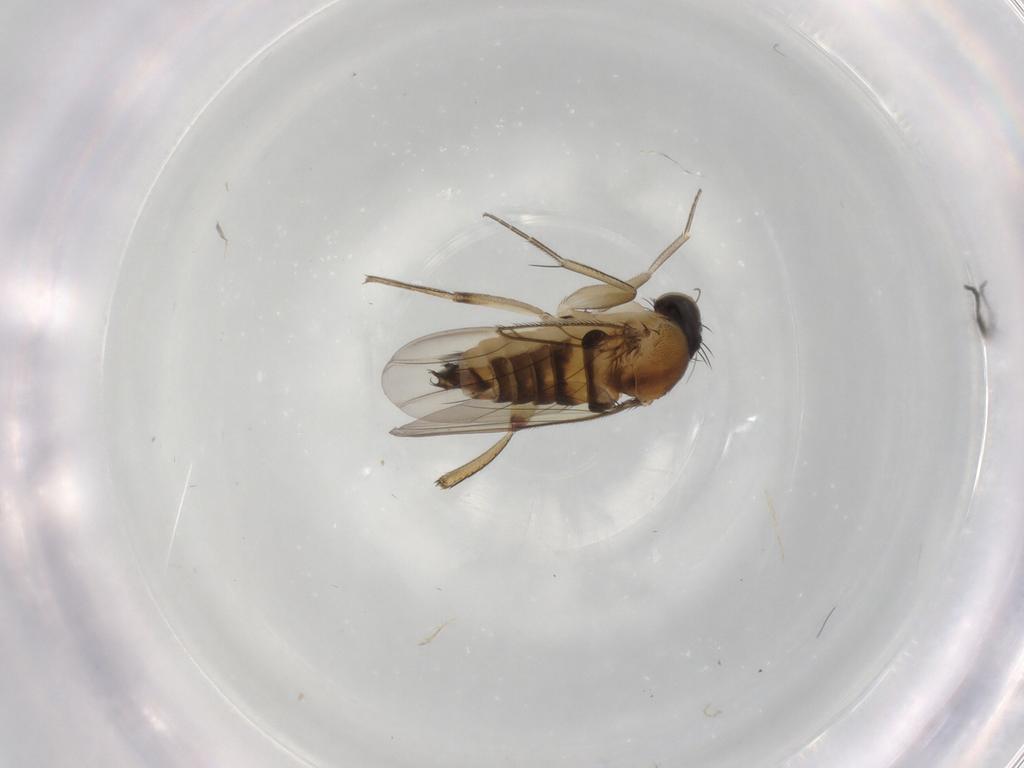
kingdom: Animalia
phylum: Arthropoda
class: Insecta
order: Diptera
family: Phoridae
